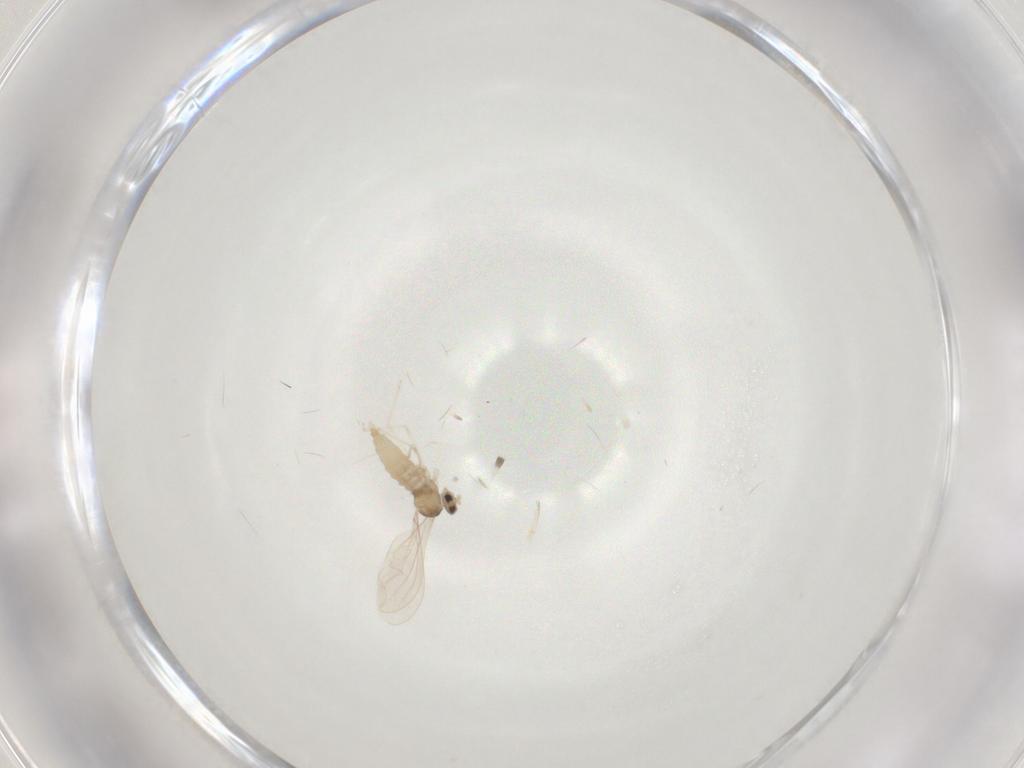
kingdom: Animalia
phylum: Arthropoda
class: Insecta
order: Diptera
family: Cecidomyiidae
